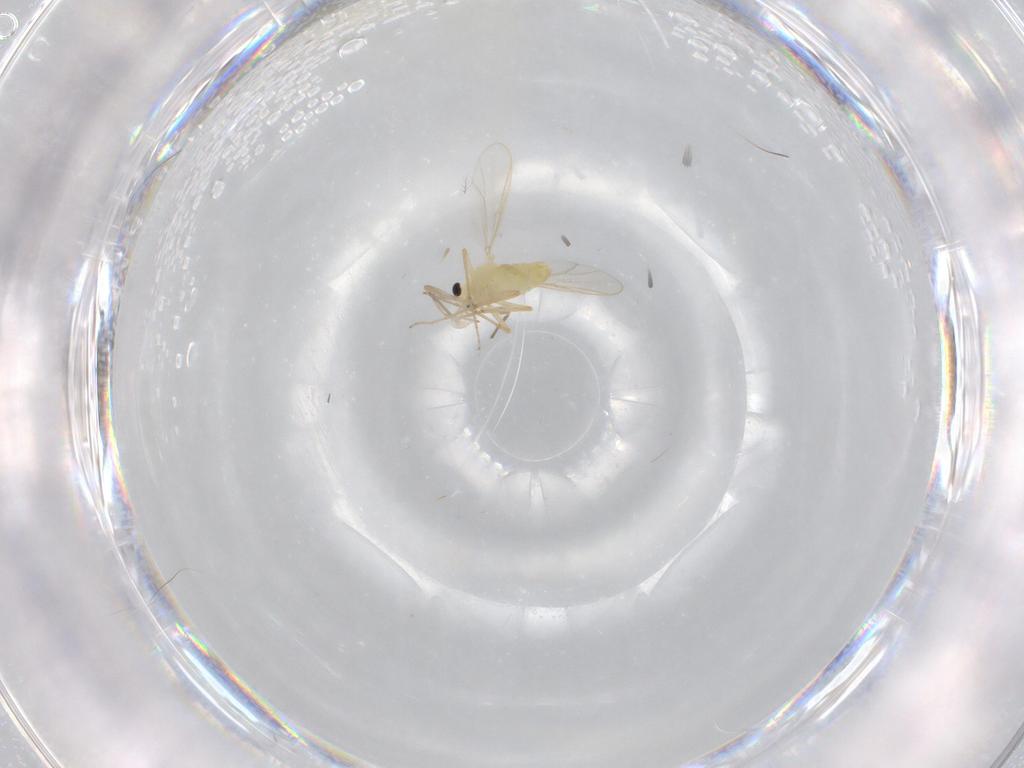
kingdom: Animalia
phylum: Arthropoda
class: Insecta
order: Diptera
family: Chironomidae
